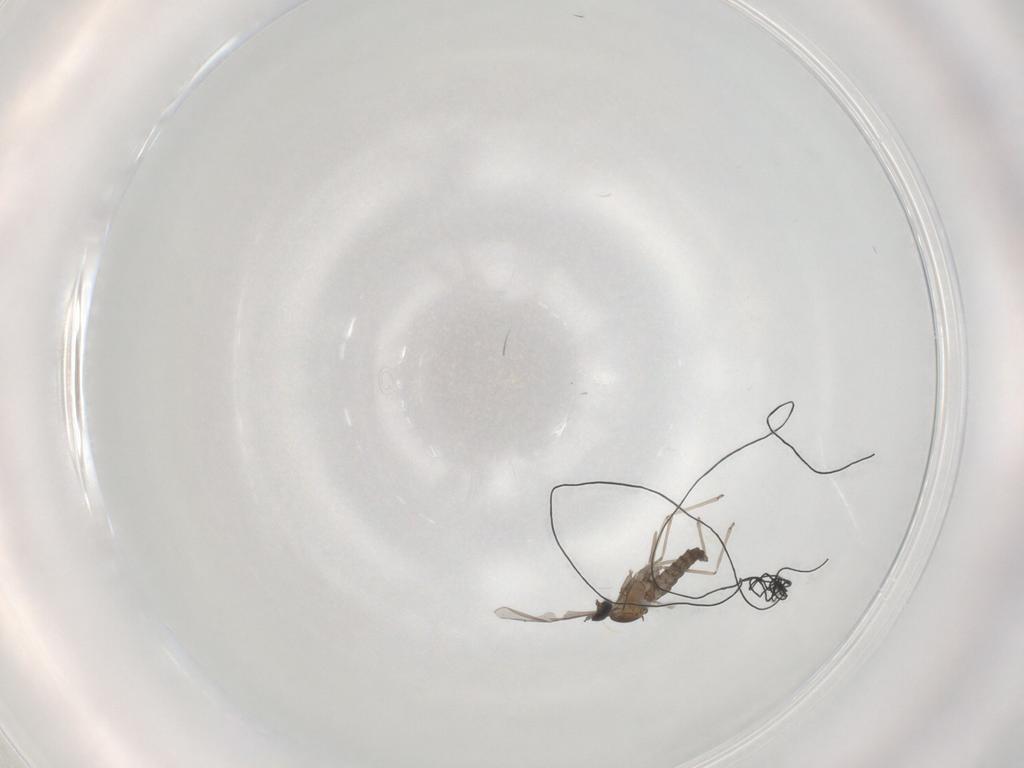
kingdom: Animalia
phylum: Arthropoda
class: Insecta
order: Diptera
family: Cecidomyiidae
